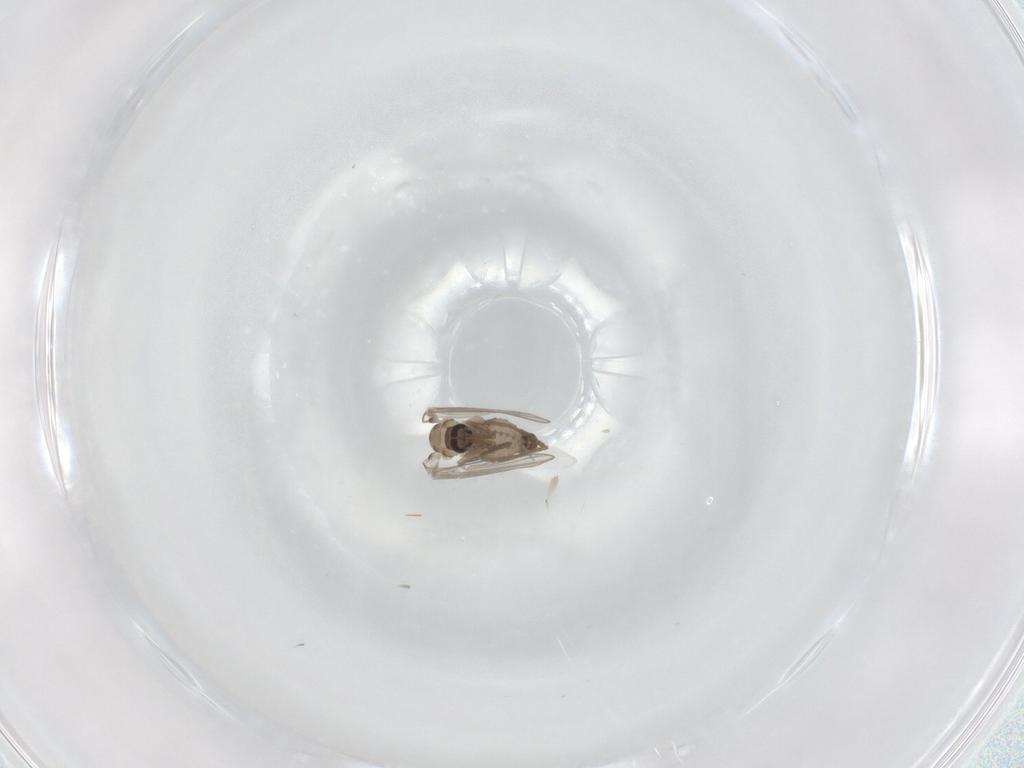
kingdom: Animalia
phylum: Arthropoda
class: Insecta
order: Diptera
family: Psychodidae
